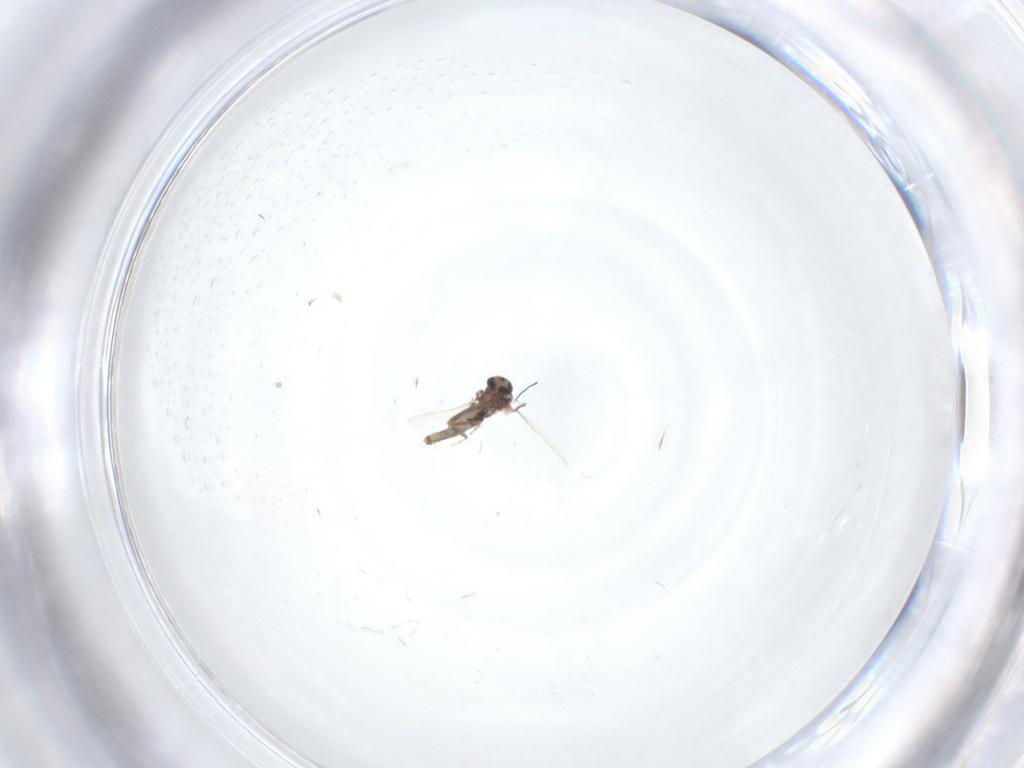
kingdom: Animalia
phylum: Arthropoda
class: Insecta
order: Diptera
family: Ceratopogonidae
